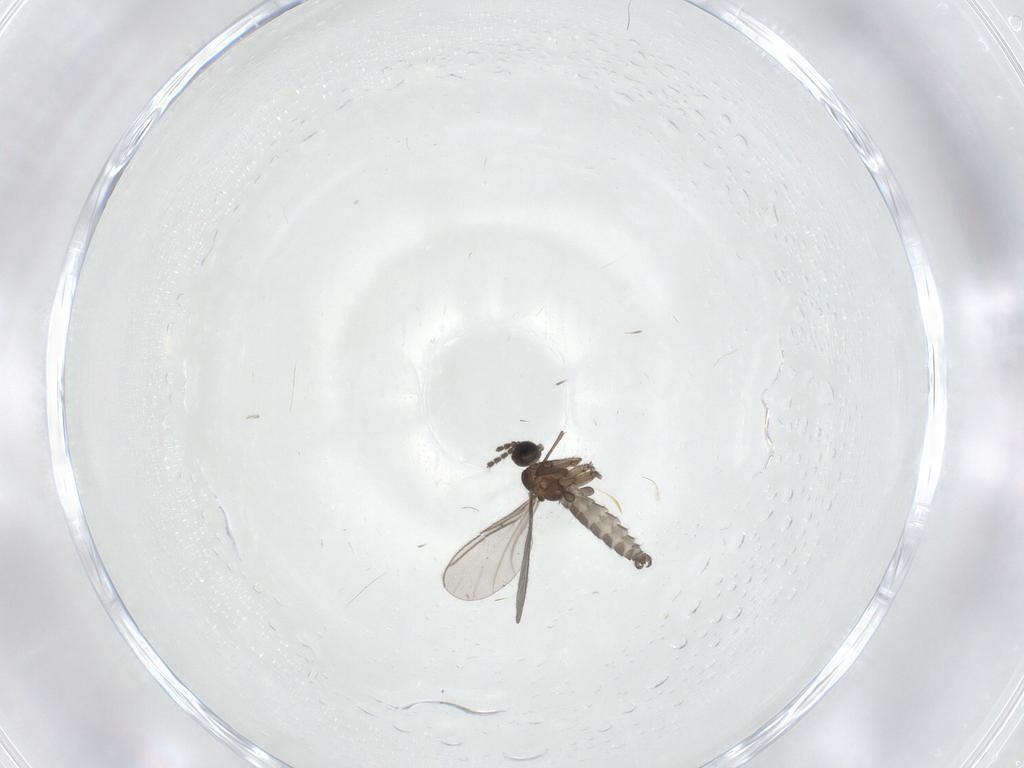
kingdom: Animalia
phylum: Arthropoda
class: Insecta
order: Diptera
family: Sciaridae
